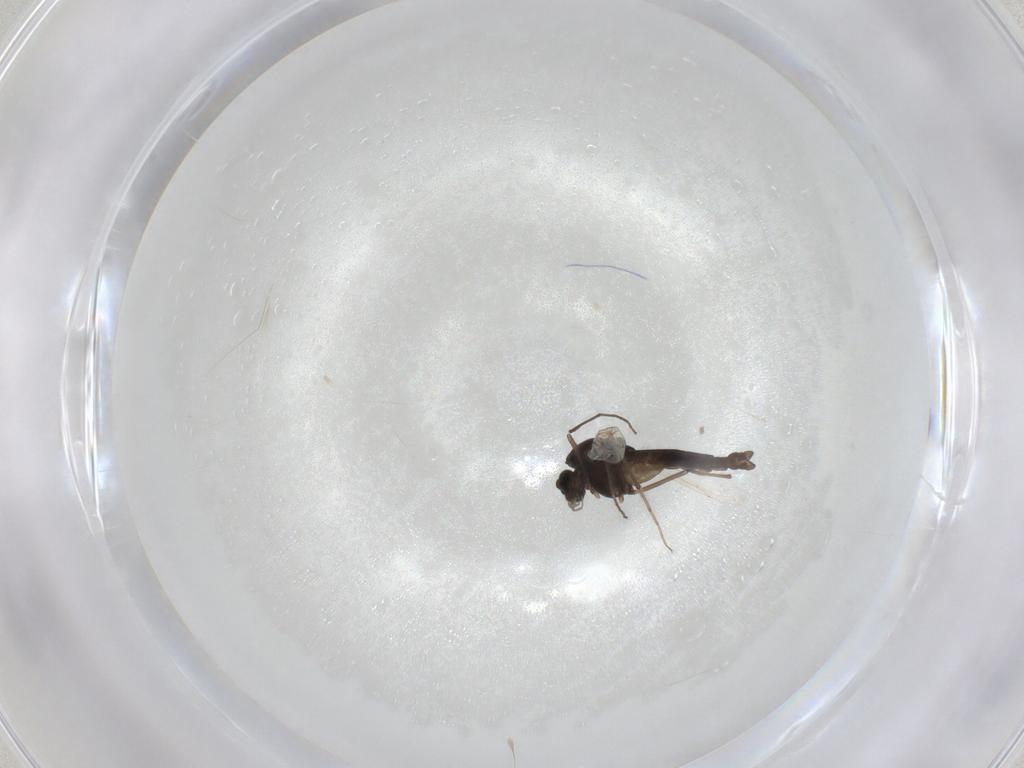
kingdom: Animalia
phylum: Arthropoda
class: Insecta
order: Diptera
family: Chironomidae
